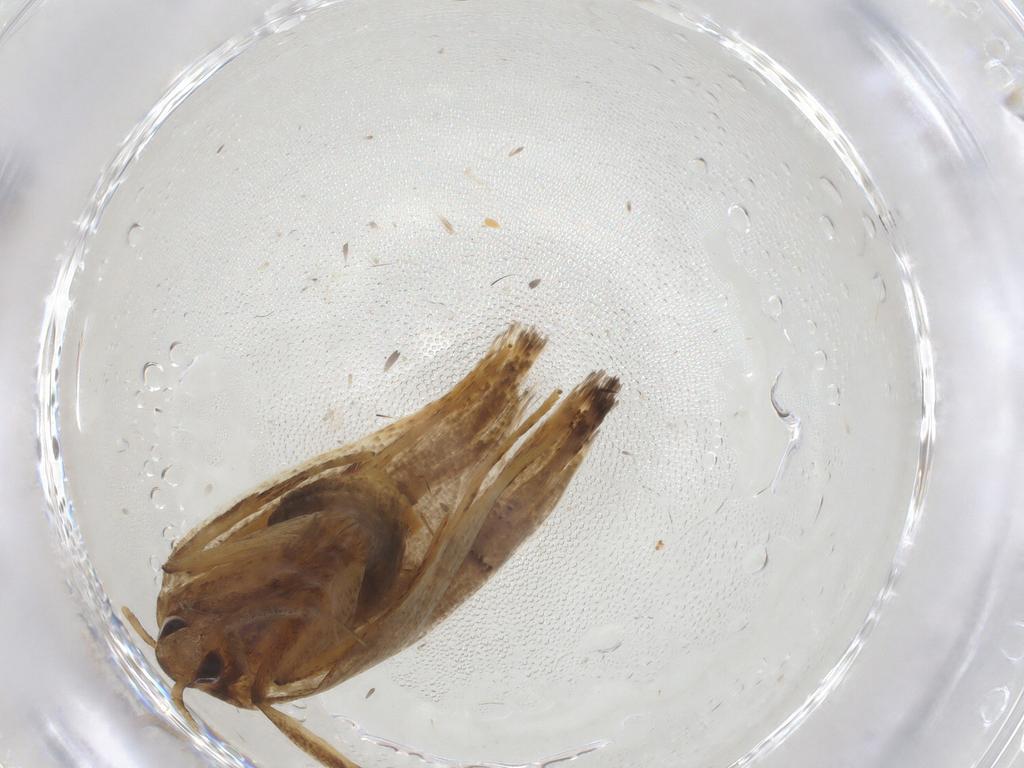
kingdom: Animalia
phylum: Arthropoda
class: Insecta
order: Lepidoptera
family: Lecithoceridae
